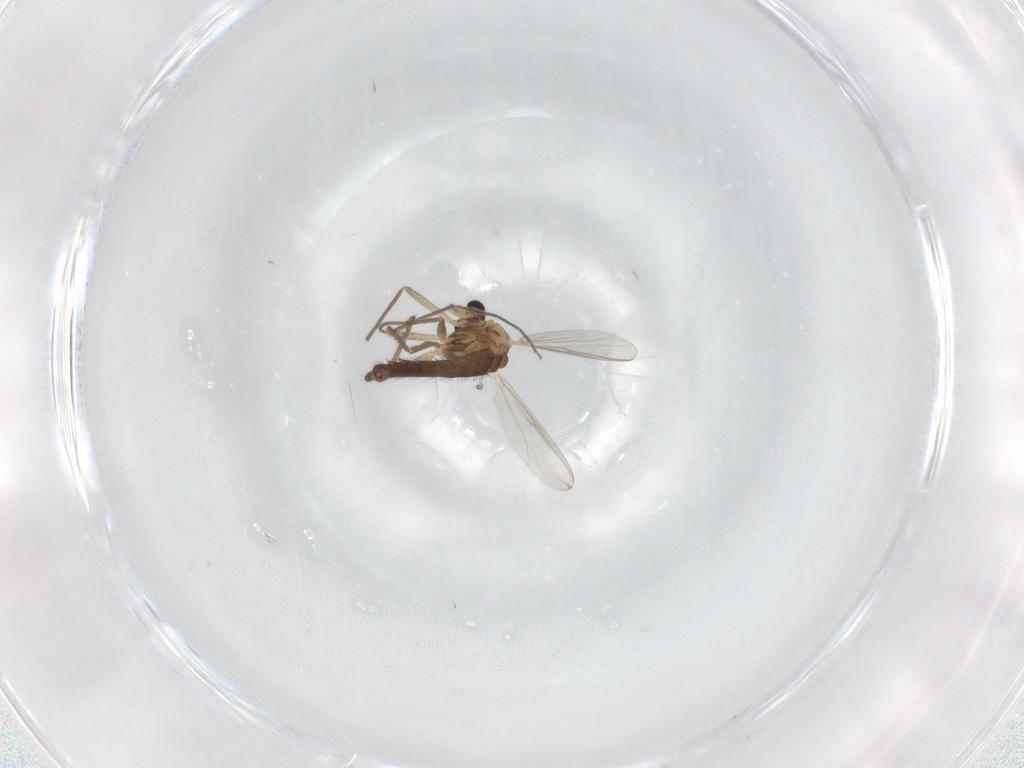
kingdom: Animalia
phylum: Arthropoda
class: Insecta
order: Diptera
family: Chironomidae
